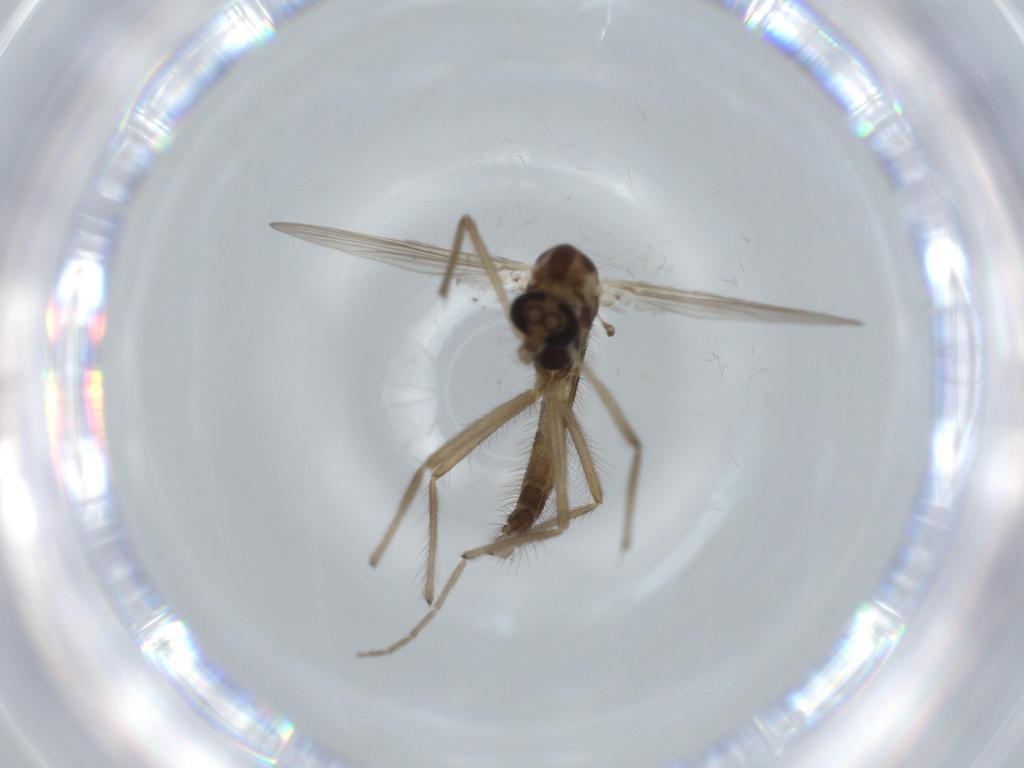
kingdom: Animalia
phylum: Arthropoda
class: Insecta
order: Diptera
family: Chironomidae
